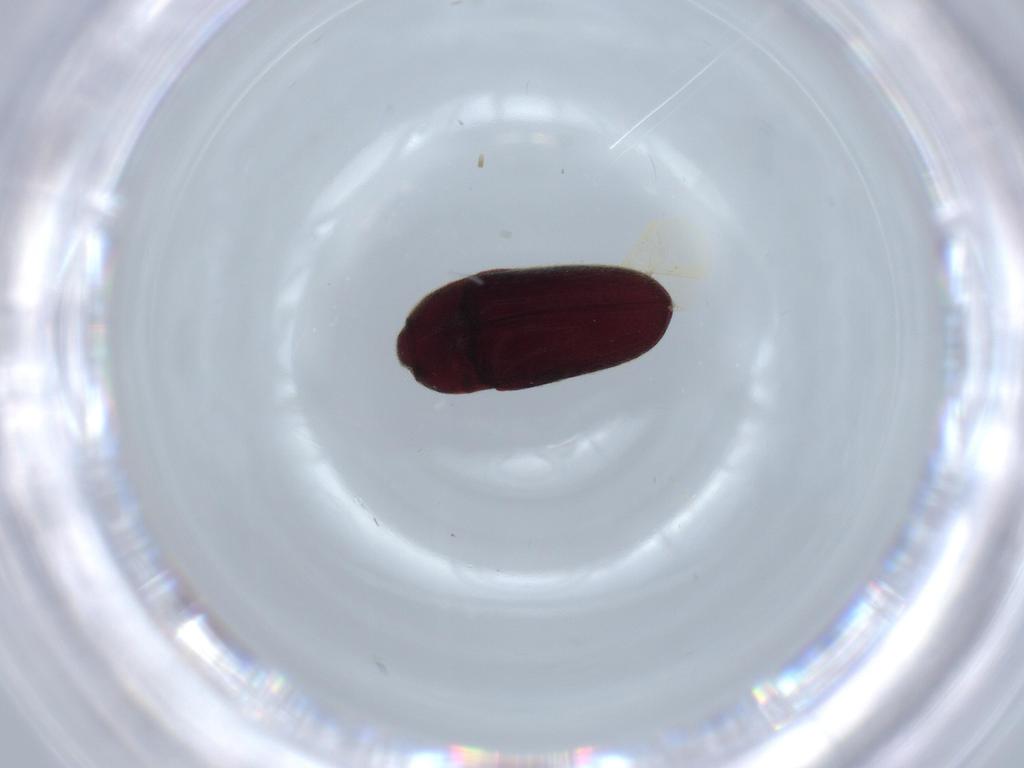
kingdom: Animalia
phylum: Arthropoda
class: Insecta
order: Coleoptera
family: Throscidae
